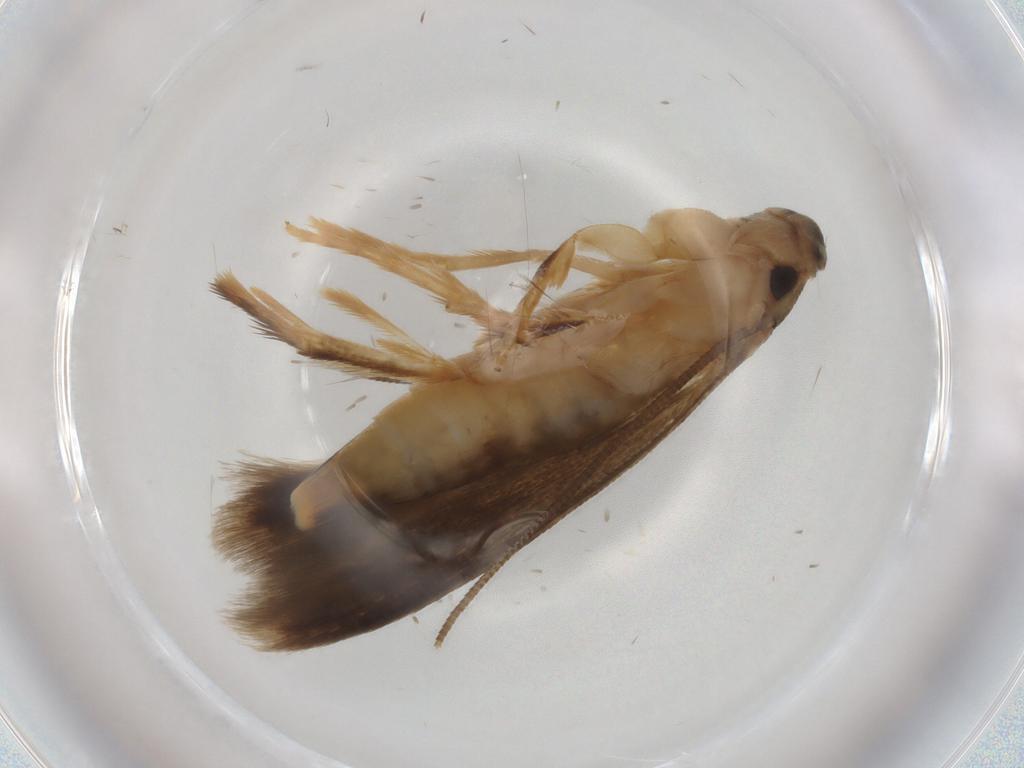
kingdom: Animalia
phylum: Arthropoda
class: Insecta
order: Lepidoptera
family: Tineidae
